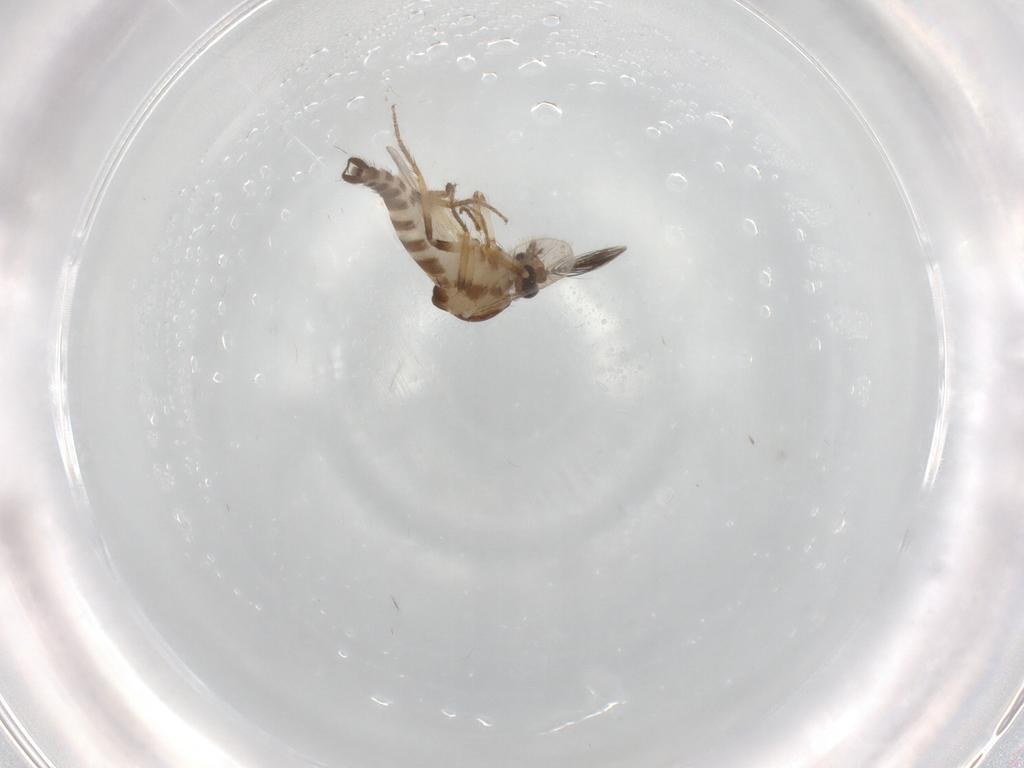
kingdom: Animalia
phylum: Arthropoda
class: Insecta
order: Diptera
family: Ceratopogonidae
